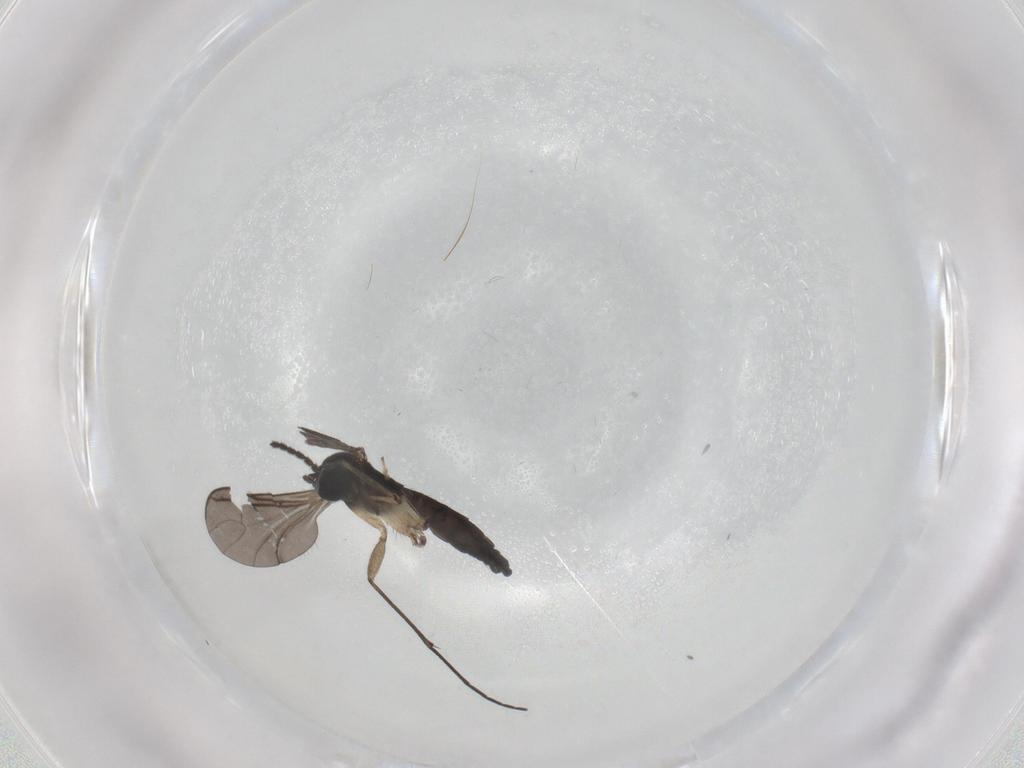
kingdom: Animalia
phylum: Arthropoda
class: Insecta
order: Diptera
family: Sciaridae
